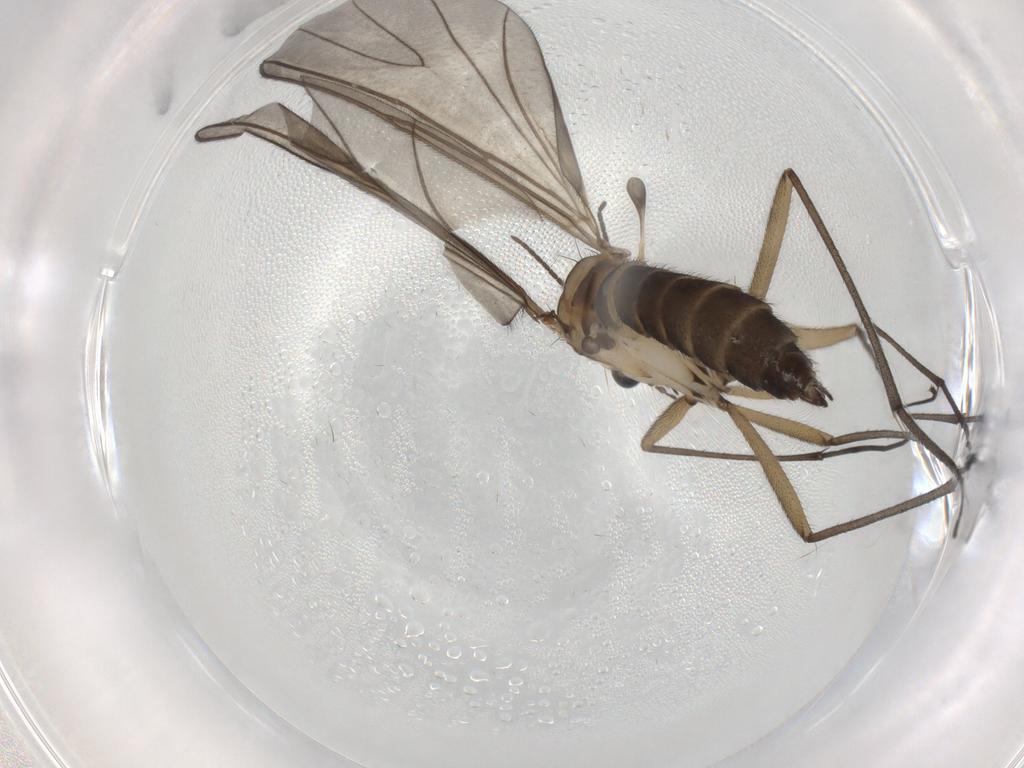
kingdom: Animalia
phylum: Arthropoda
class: Insecta
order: Diptera
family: Sciaridae
